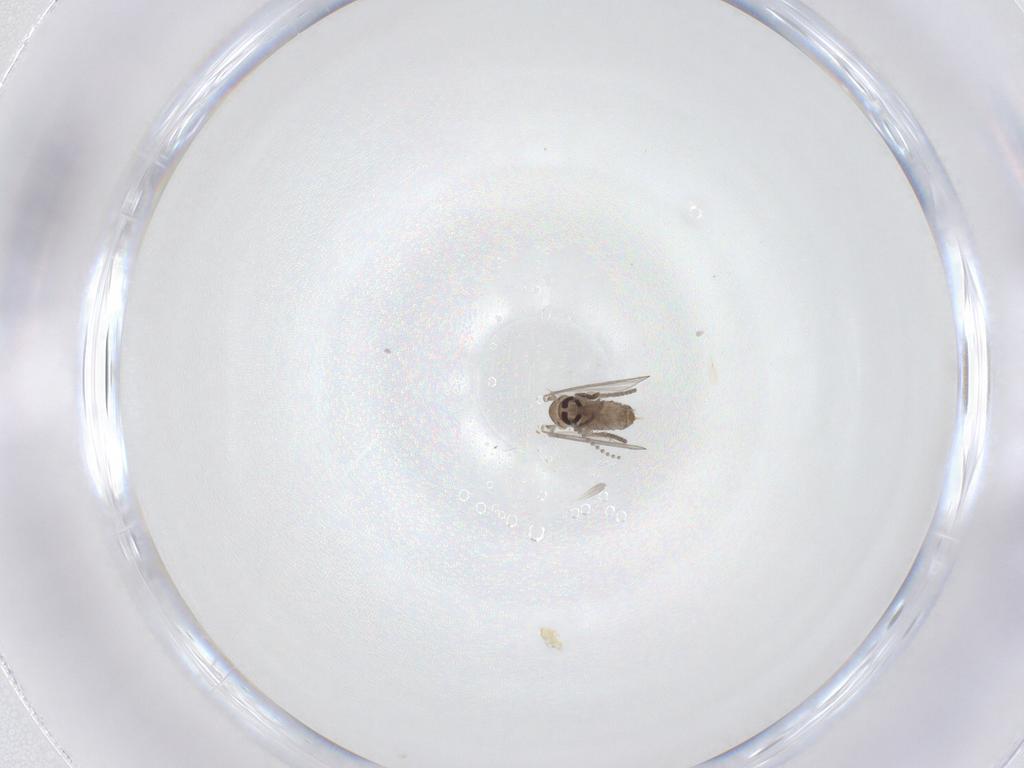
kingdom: Animalia
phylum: Arthropoda
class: Insecta
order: Diptera
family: Psychodidae
